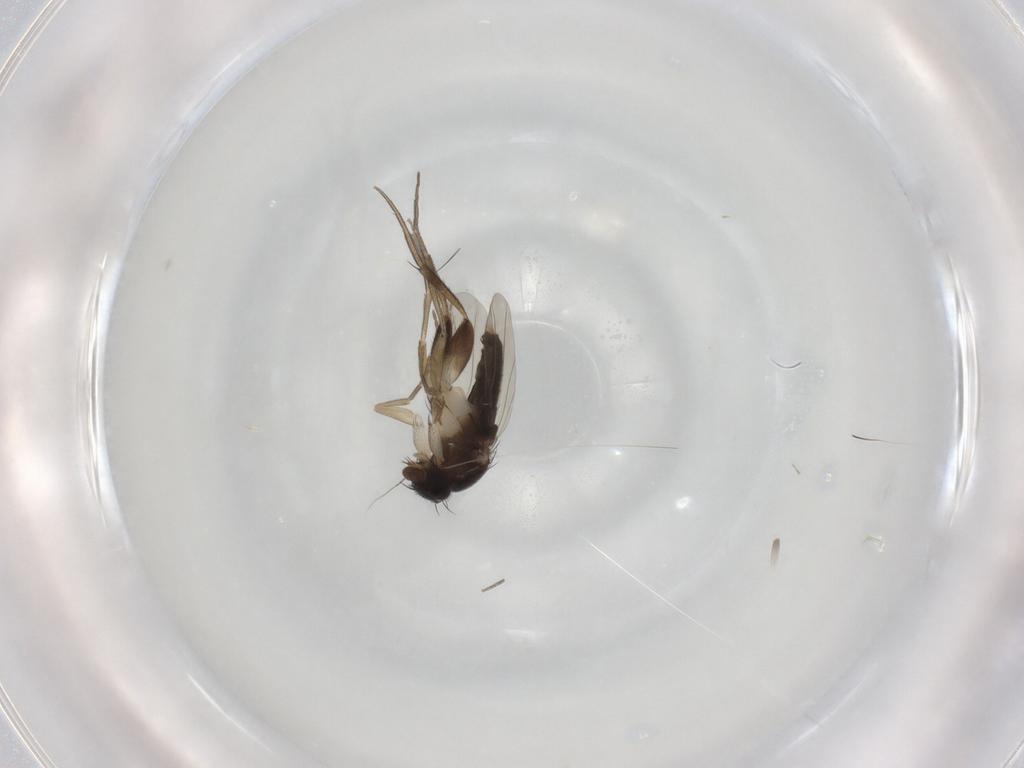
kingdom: Animalia
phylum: Arthropoda
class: Insecta
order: Diptera
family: Phoridae
